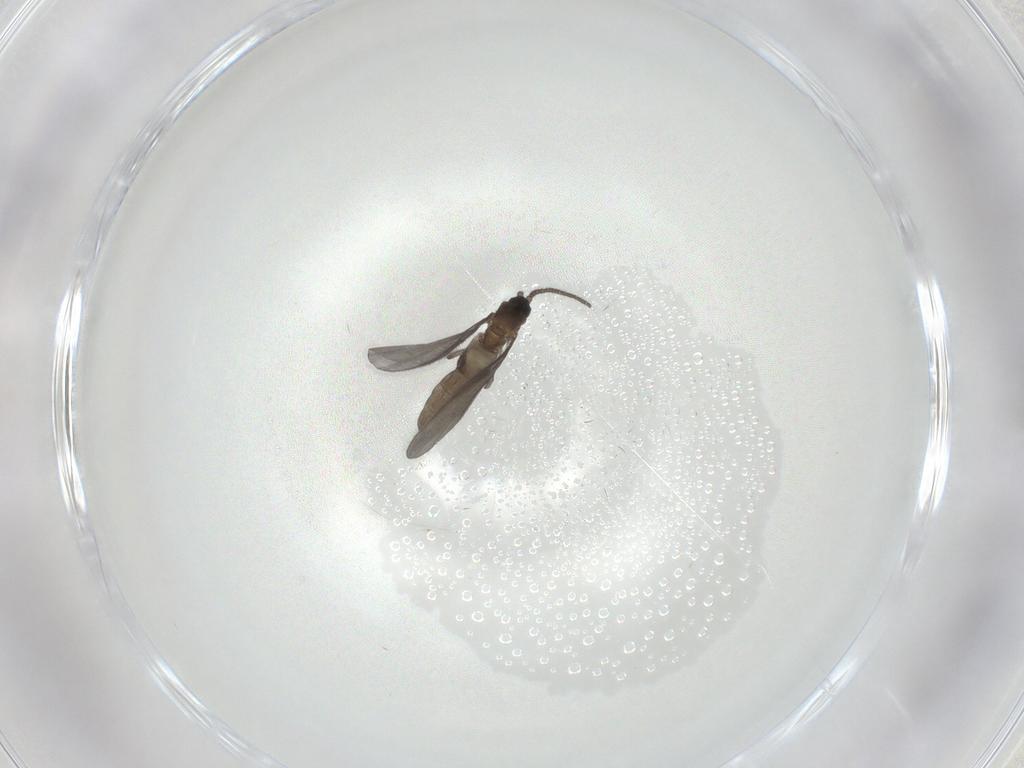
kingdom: Animalia
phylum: Arthropoda
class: Insecta
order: Diptera
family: Sciaridae
